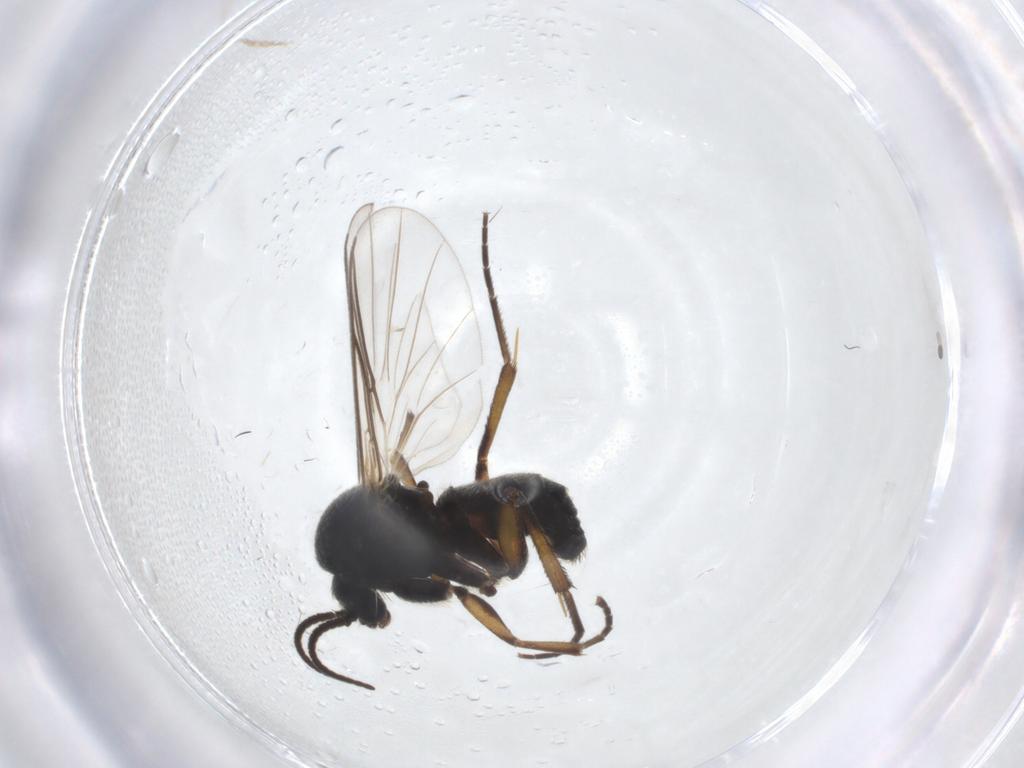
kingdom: Animalia
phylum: Arthropoda
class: Insecta
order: Diptera
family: Mycetophilidae
